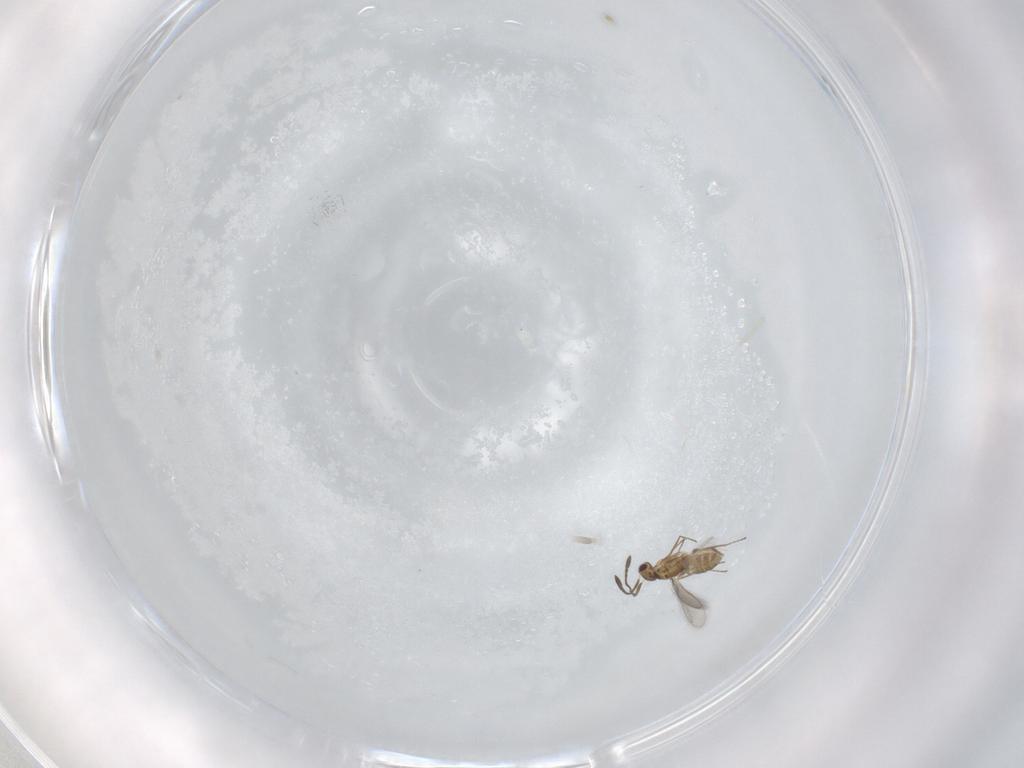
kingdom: Animalia
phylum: Arthropoda
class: Insecta
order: Hymenoptera
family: Mymaridae
